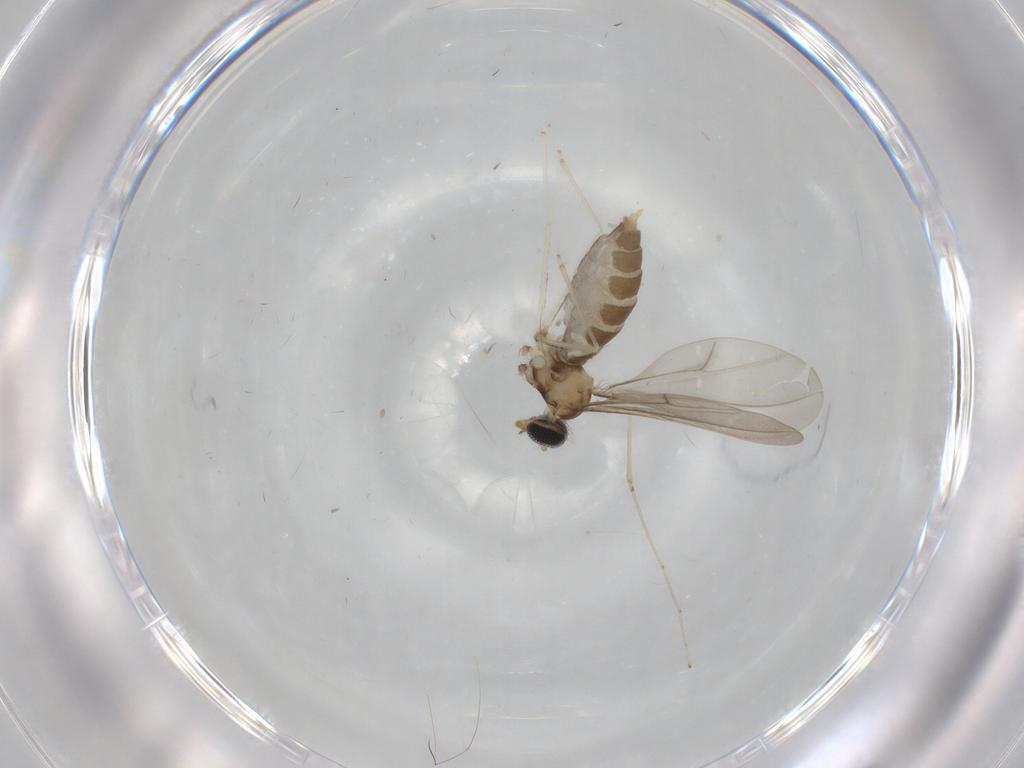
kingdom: Animalia
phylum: Arthropoda
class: Insecta
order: Diptera
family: Cecidomyiidae
